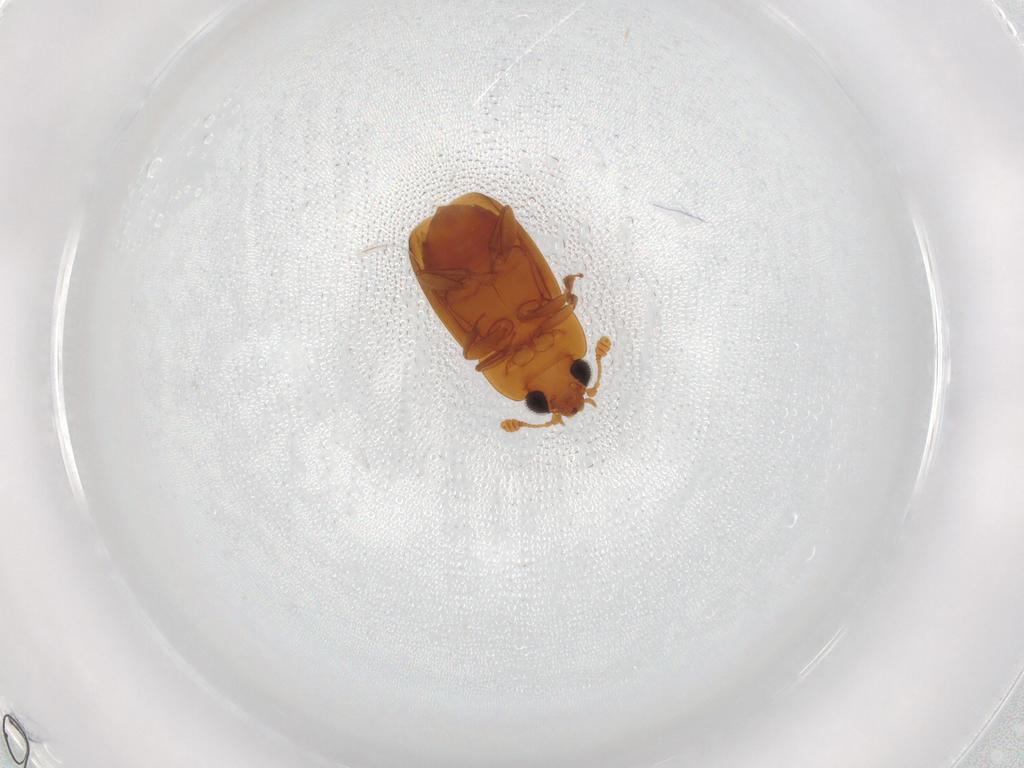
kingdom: Animalia
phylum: Arthropoda
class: Insecta
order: Coleoptera
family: Nitidulidae
